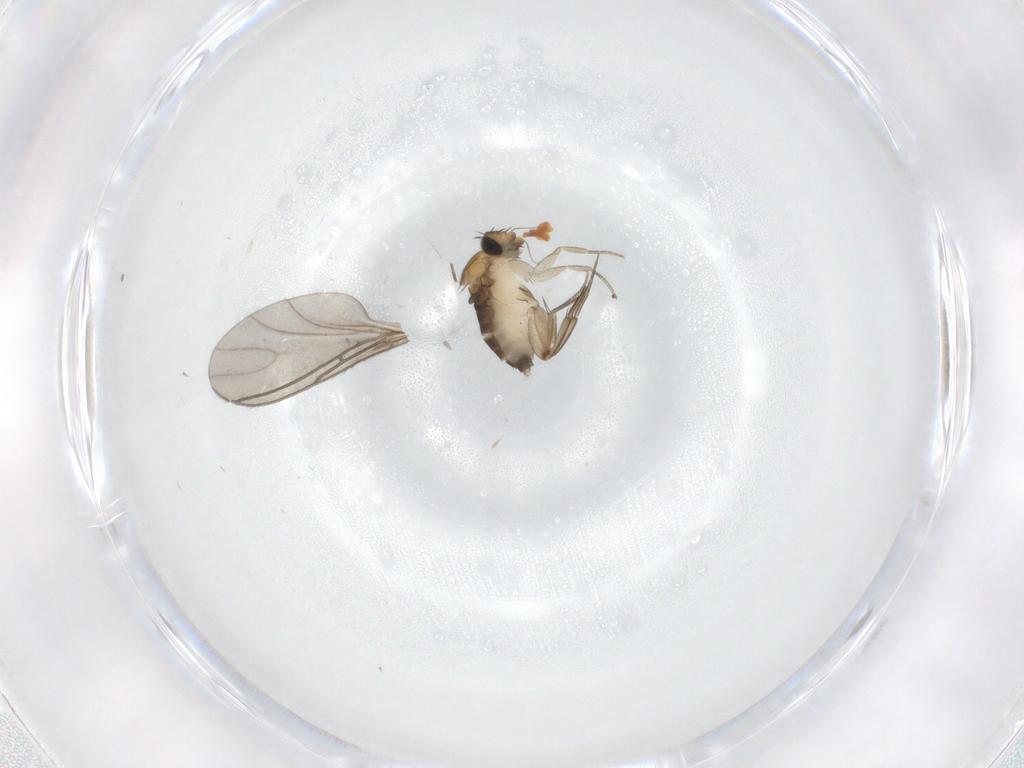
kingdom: Animalia
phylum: Arthropoda
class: Insecta
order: Diptera
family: Phoridae
